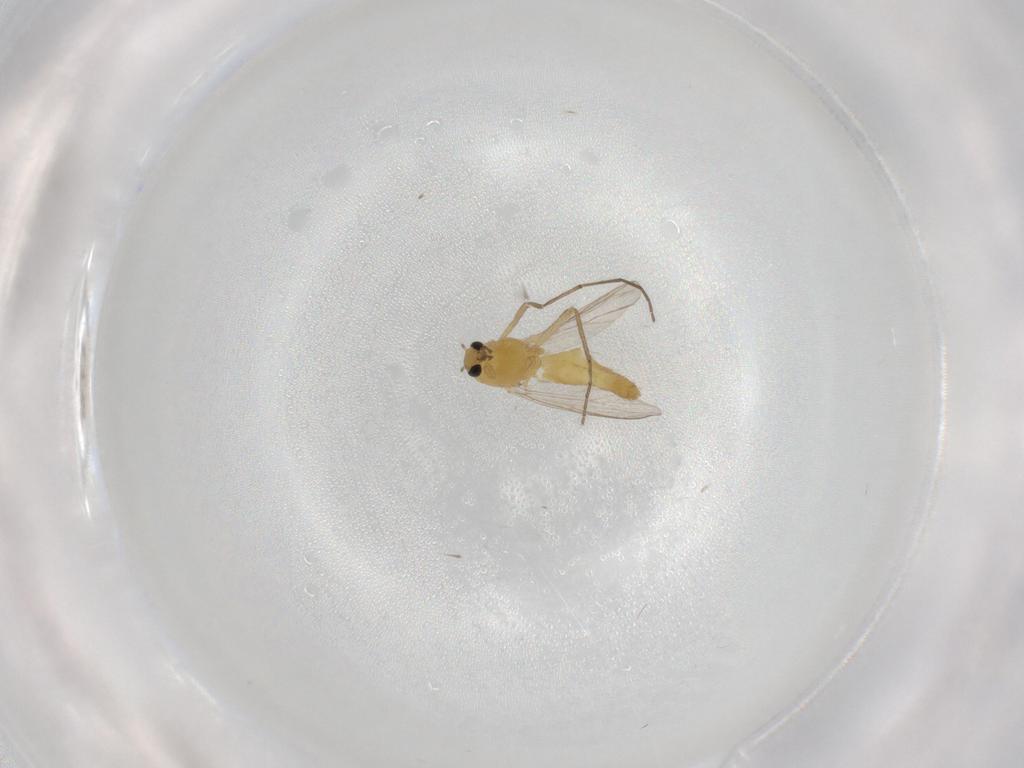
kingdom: Animalia
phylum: Arthropoda
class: Insecta
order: Diptera
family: Chironomidae
